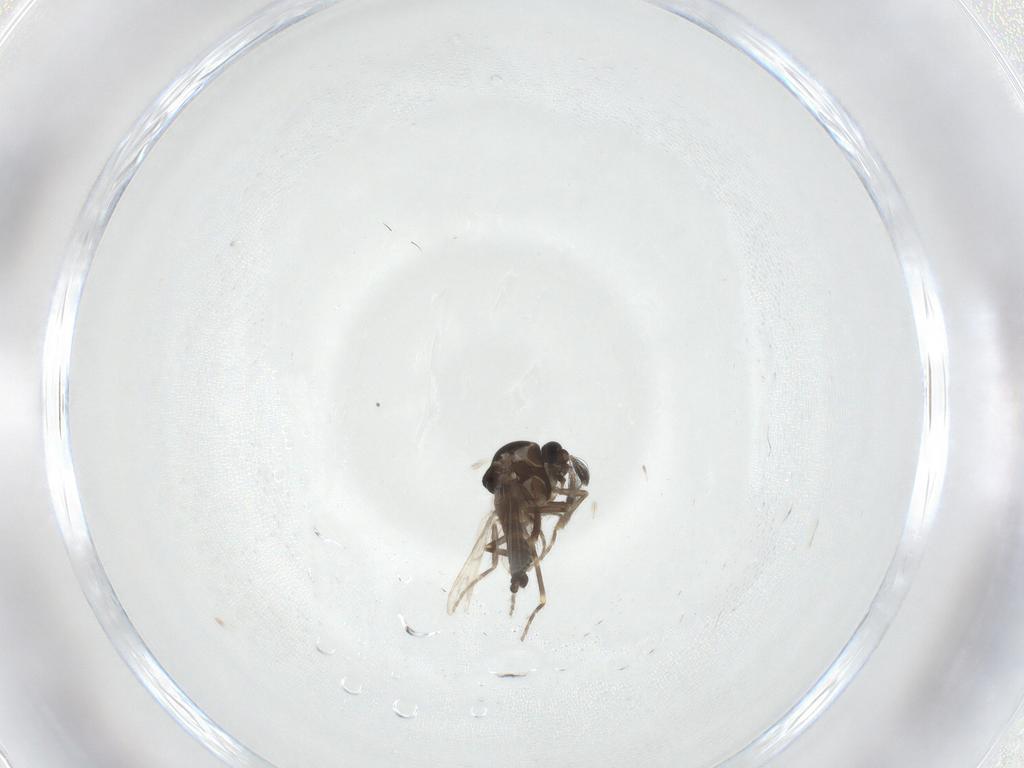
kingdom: Animalia
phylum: Arthropoda
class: Insecta
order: Diptera
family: Ceratopogonidae
